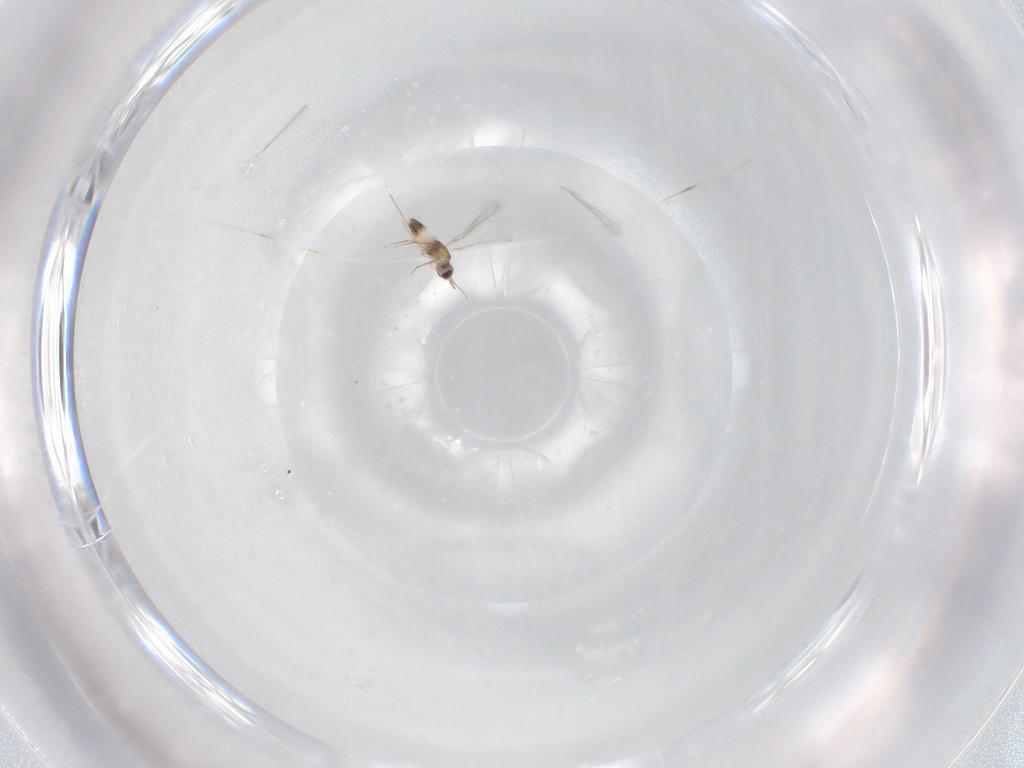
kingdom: Animalia
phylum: Arthropoda
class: Insecta
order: Hymenoptera
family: Mymaridae
